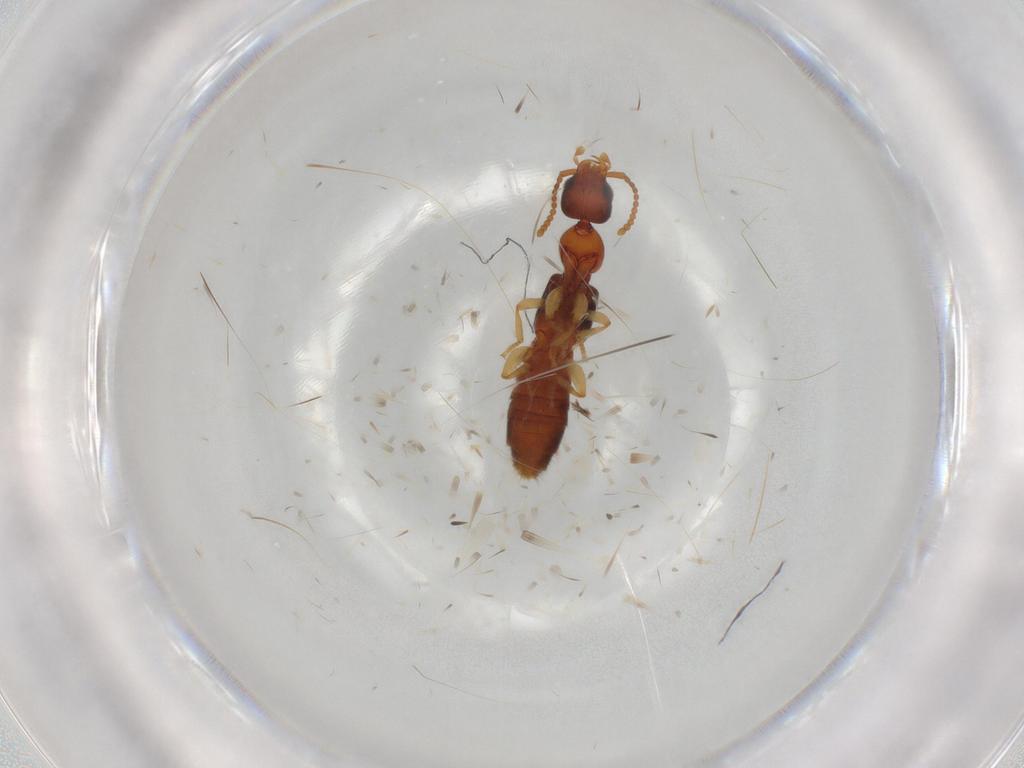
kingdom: Animalia
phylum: Arthropoda
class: Insecta
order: Coleoptera
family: Staphylinidae
